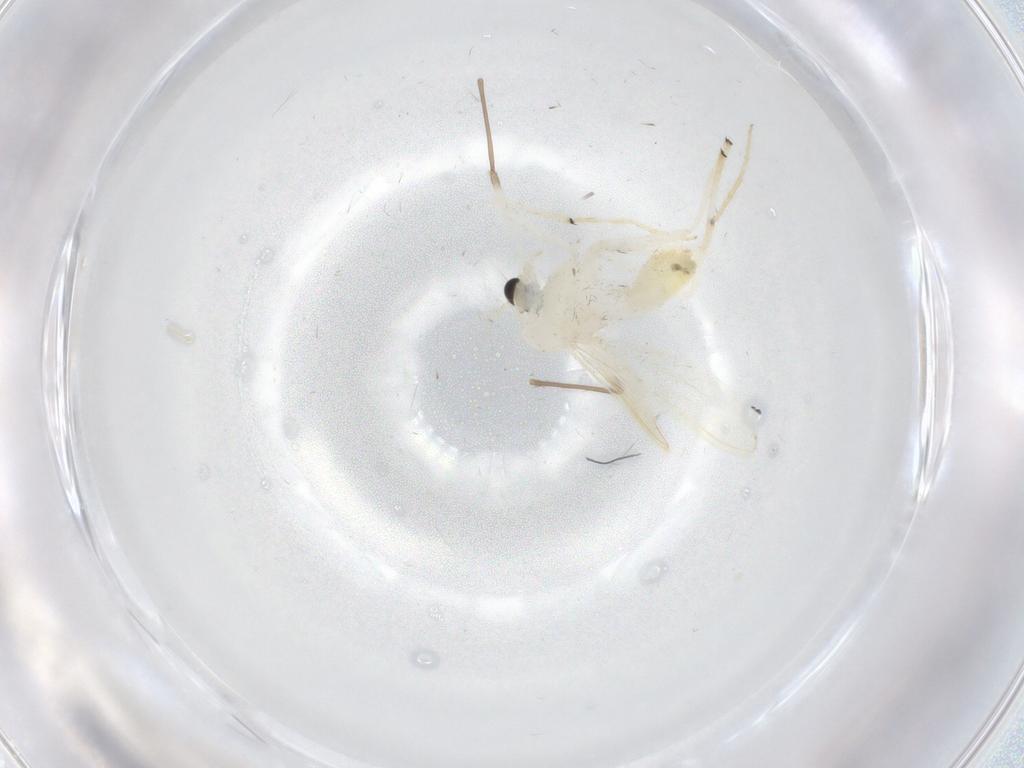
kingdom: Animalia
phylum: Arthropoda
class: Insecta
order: Diptera
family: Chironomidae
